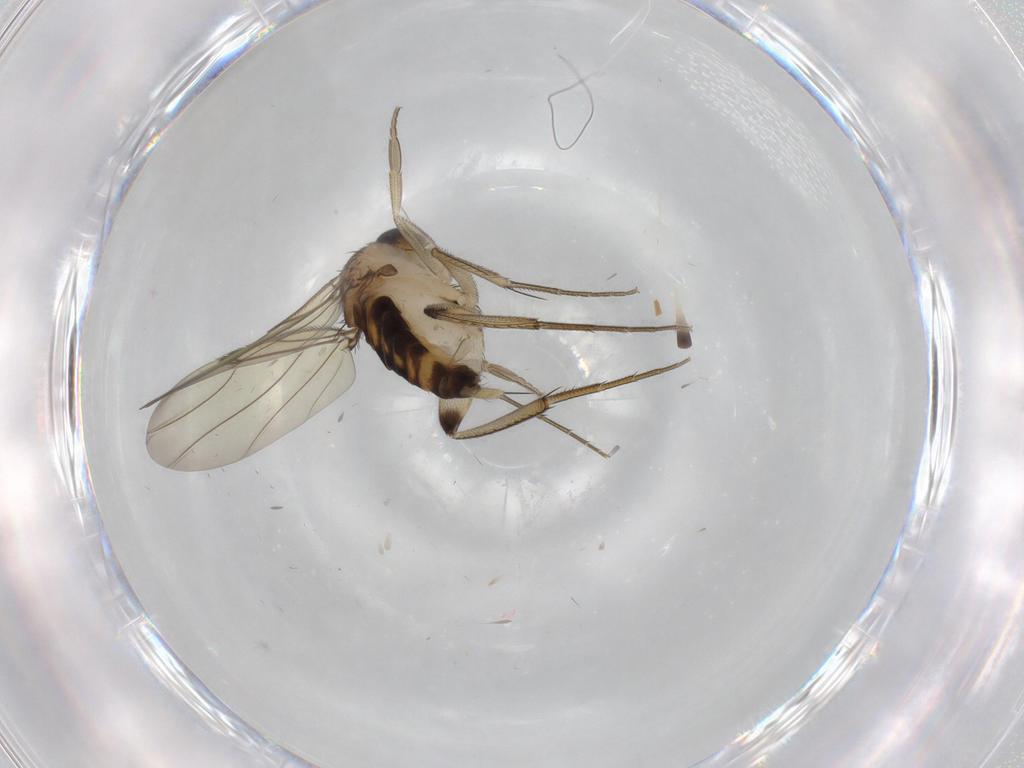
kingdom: Animalia
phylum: Arthropoda
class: Insecta
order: Diptera
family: Phoridae
